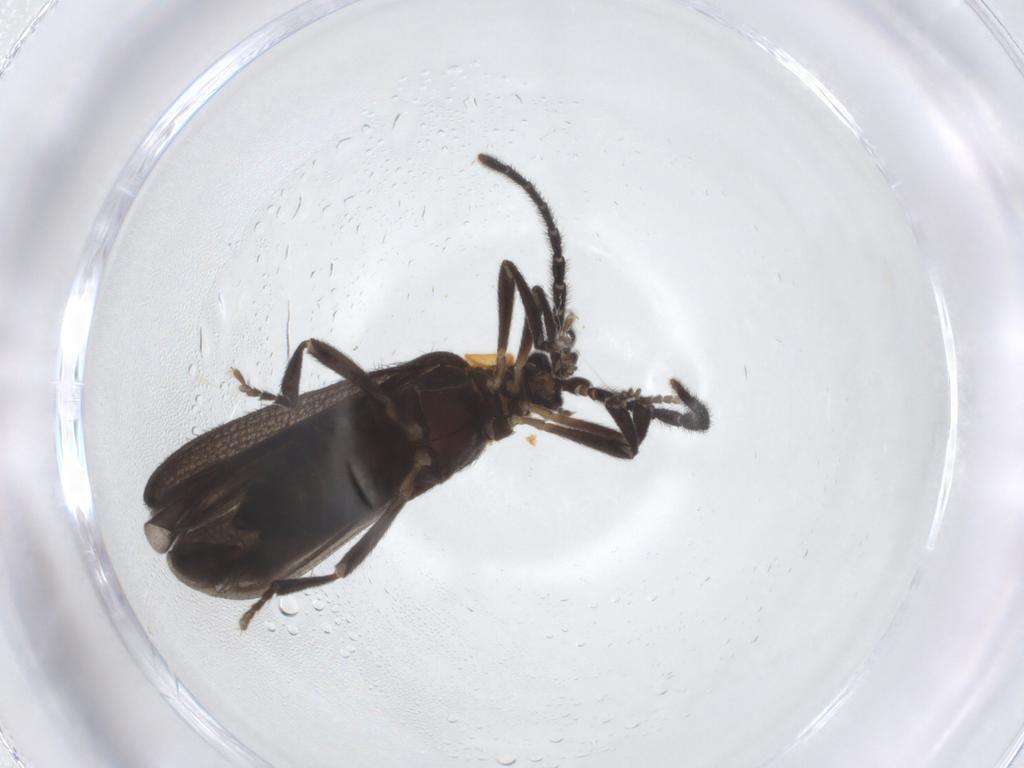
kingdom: Animalia
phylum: Arthropoda
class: Insecta
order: Coleoptera
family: Lycidae
